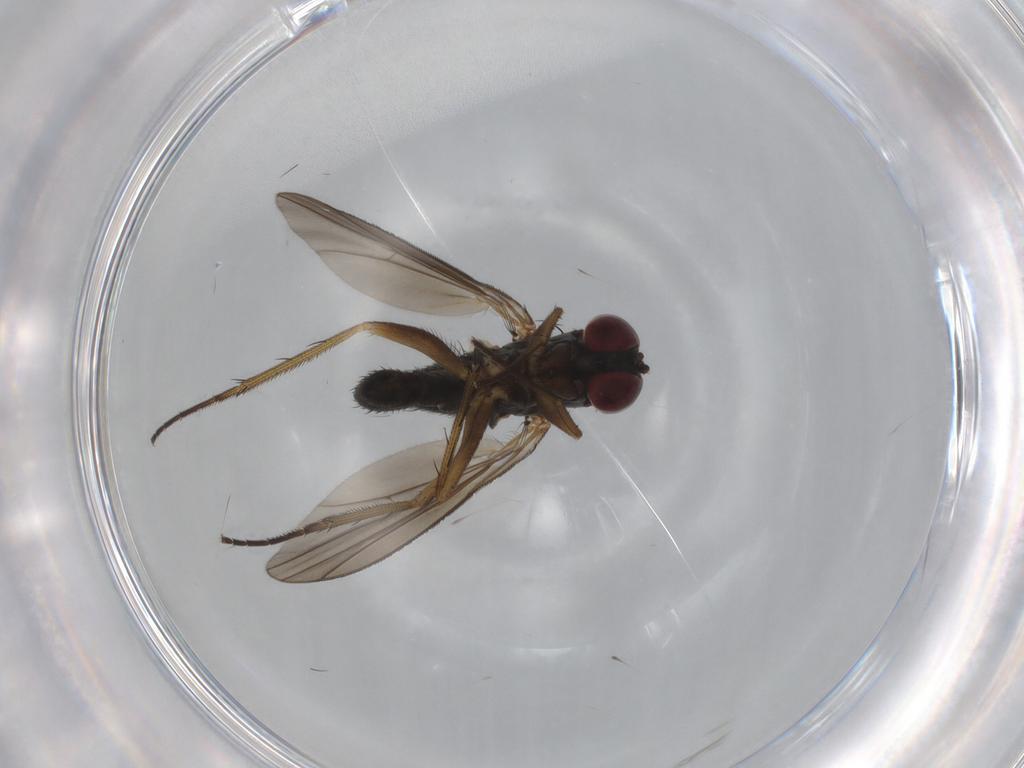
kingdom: Animalia
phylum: Arthropoda
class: Insecta
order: Diptera
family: Dolichopodidae
